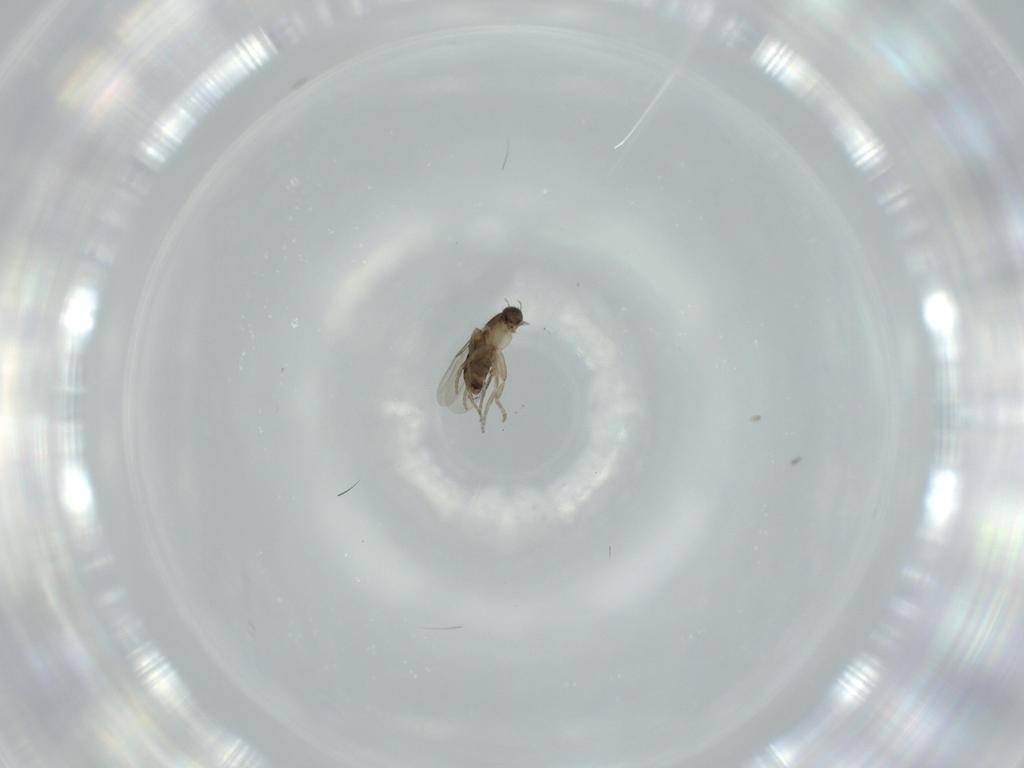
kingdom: Animalia
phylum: Arthropoda
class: Insecta
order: Diptera
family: Phoridae
